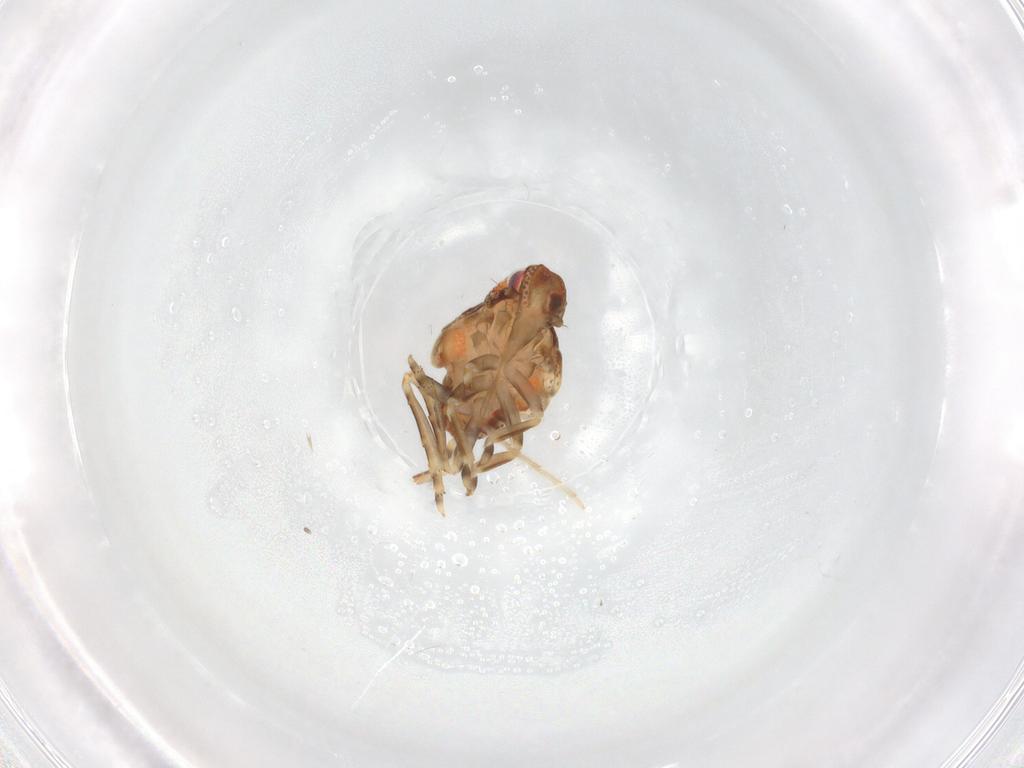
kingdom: Animalia
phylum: Arthropoda
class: Insecta
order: Hemiptera
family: Flatidae
